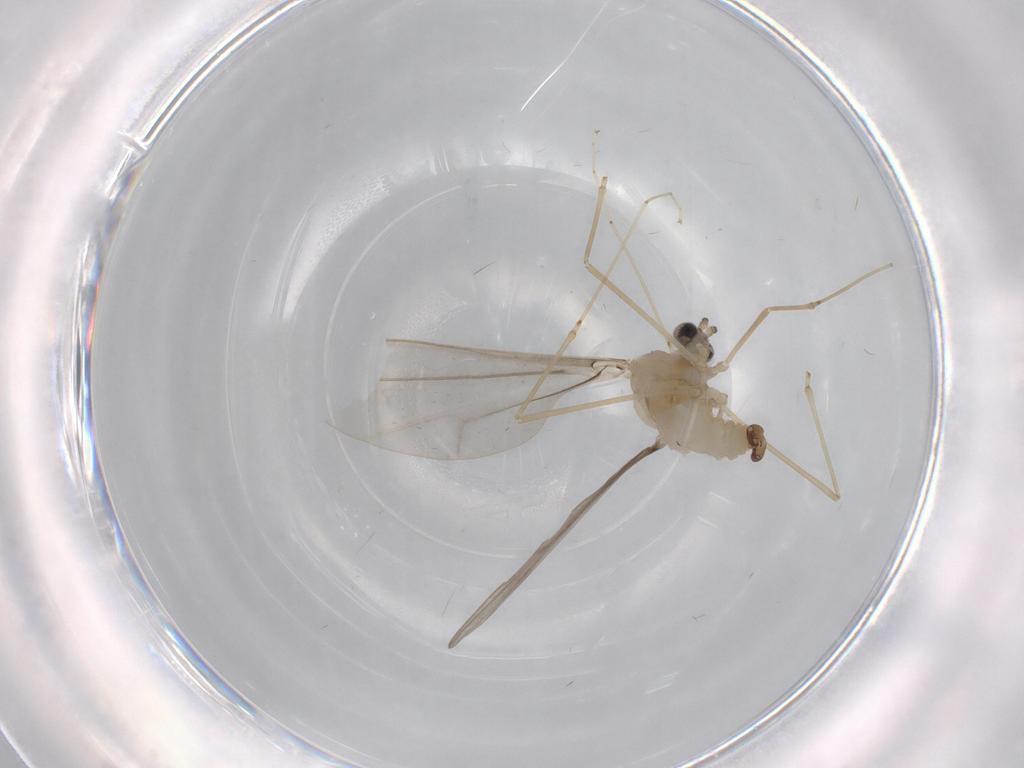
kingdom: Animalia
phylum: Arthropoda
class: Insecta
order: Diptera
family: Cecidomyiidae
